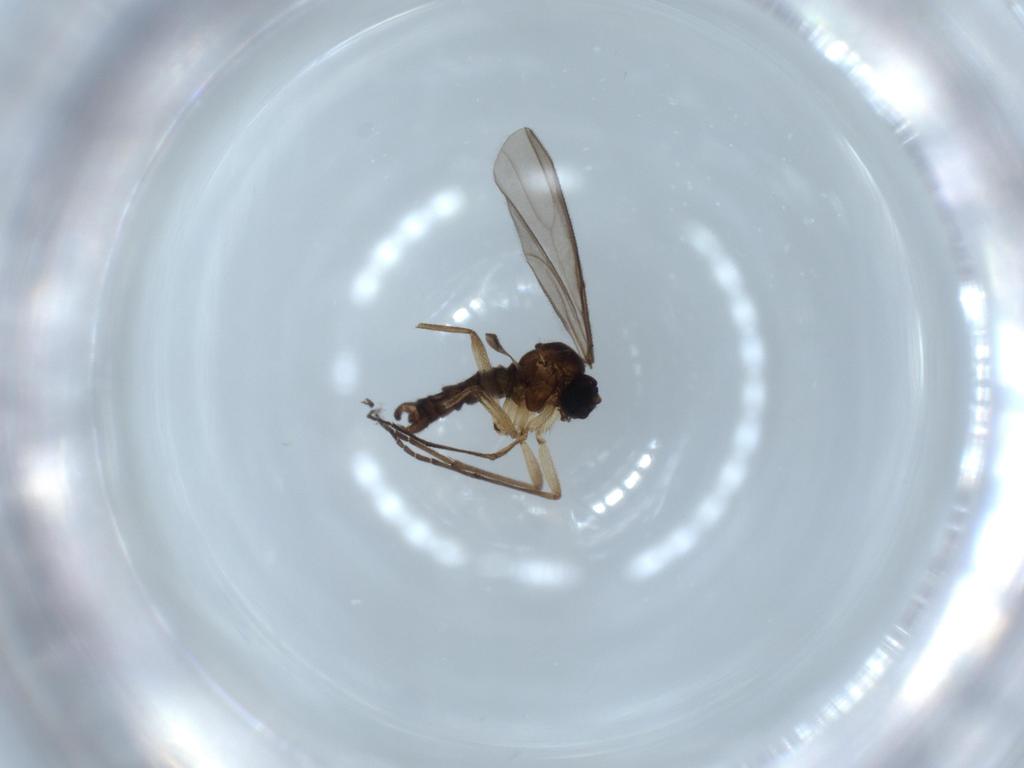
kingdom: Animalia
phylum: Arthropoda
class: Insecta
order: Diptera
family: Sciaridae
